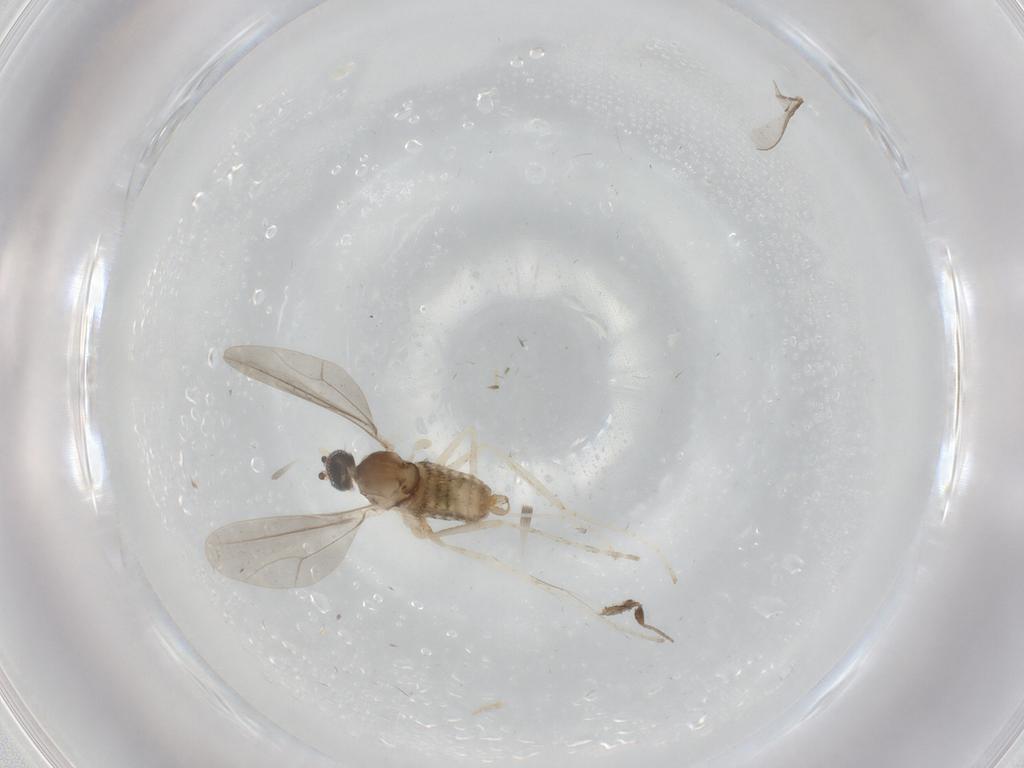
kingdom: Animalia
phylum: Arthropoda
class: Insecta
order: Diptera
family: Phoridae
